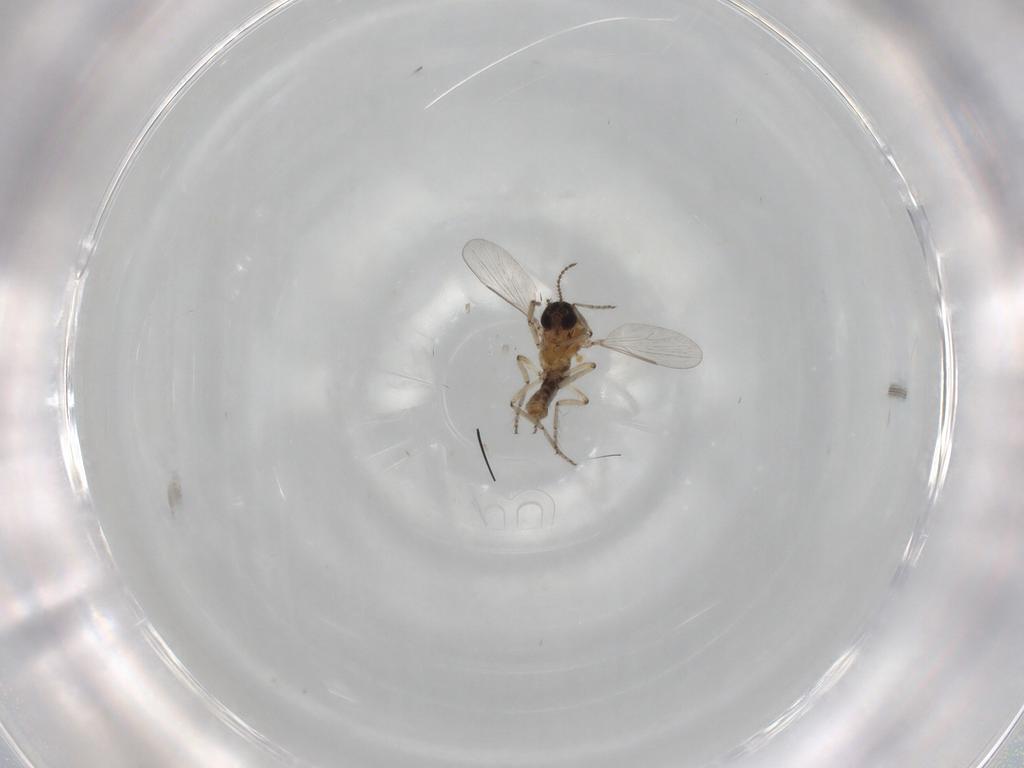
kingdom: Animalia
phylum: Arthropoda
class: Insecta
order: Diptera
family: Ceratopogonidae
